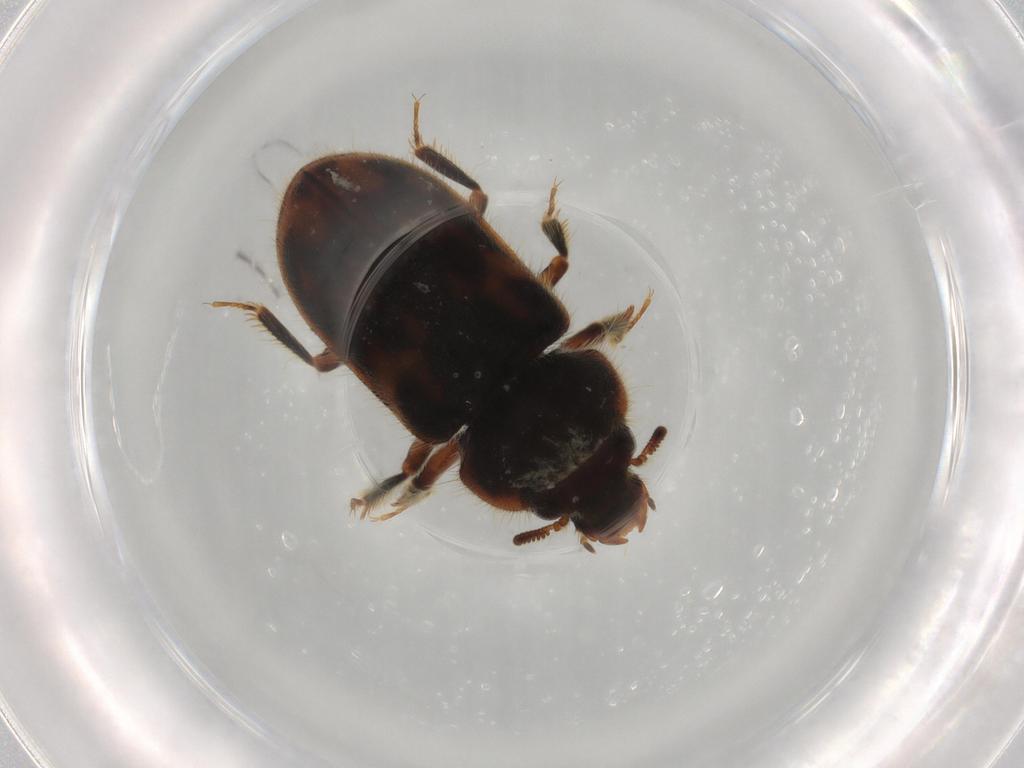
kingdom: Animalia
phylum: Arthropoda
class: Insecta
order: Coleoptera
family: Heteroceridae
